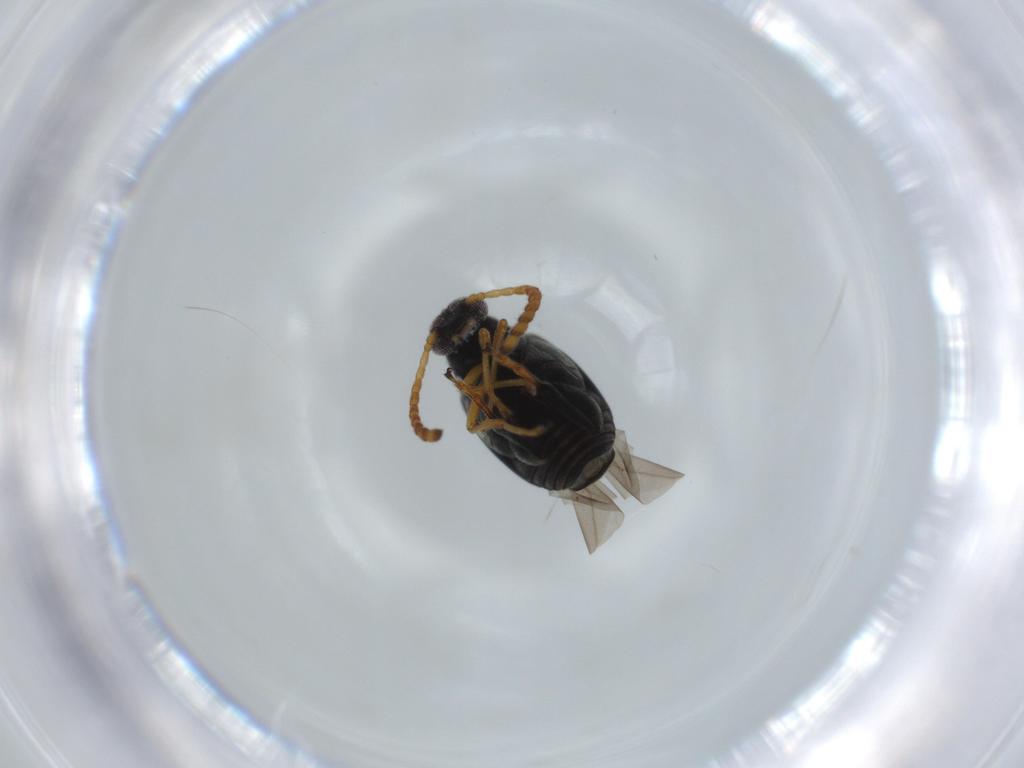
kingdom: Animalia
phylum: Arthropoda
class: Insecta
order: Coleoptera
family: Chrysomelidae
